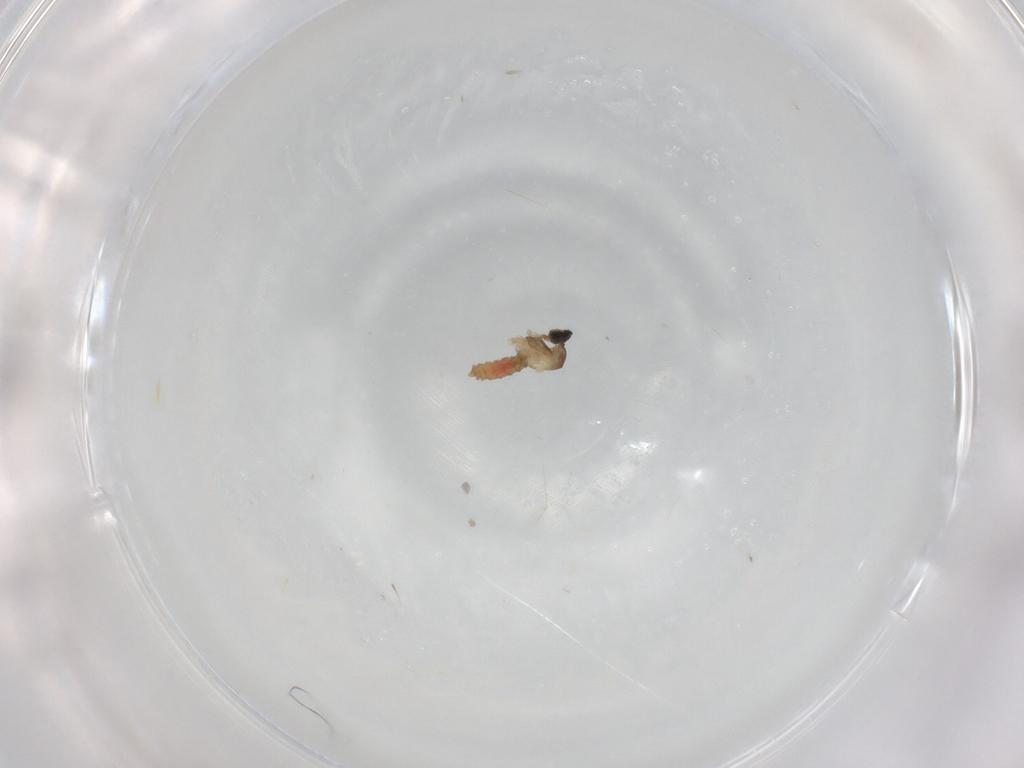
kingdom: Animalia
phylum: Arthropoda
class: Insecta
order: Diptera
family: Cecidomyiidae
